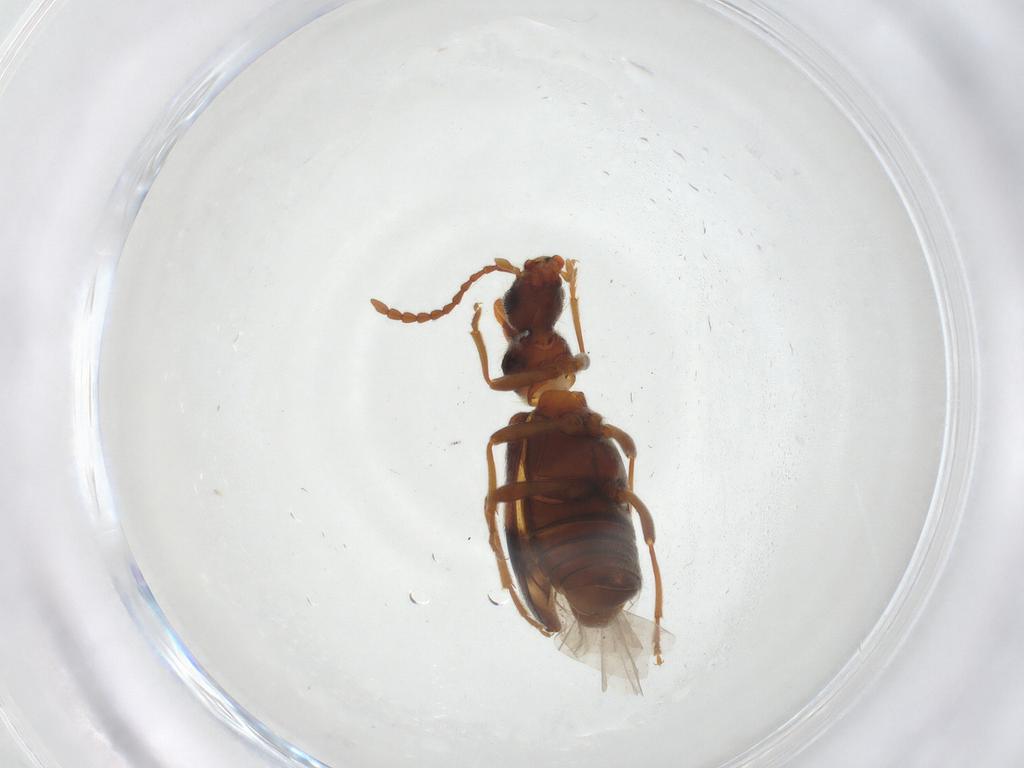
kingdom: Animalia
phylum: Arthropoda
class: Insecta
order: Coleoptera
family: Anthicidae
